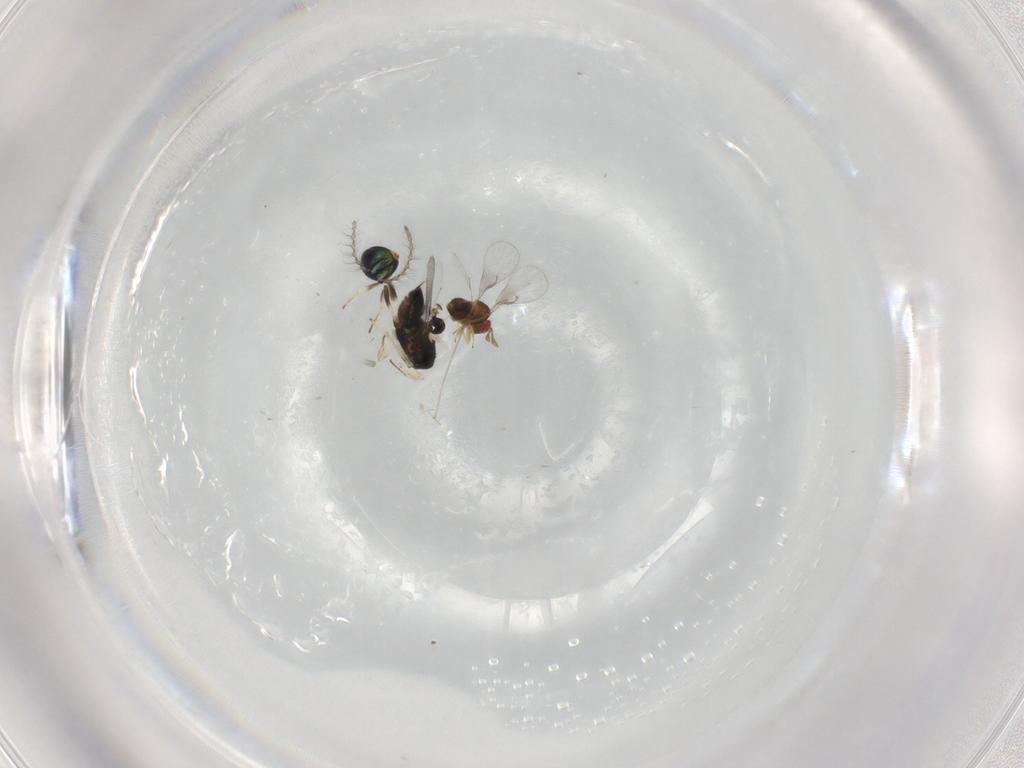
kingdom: Animalia
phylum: Arthropoda
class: Insecta
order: Hymenoptera
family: Trichogrammatidae
